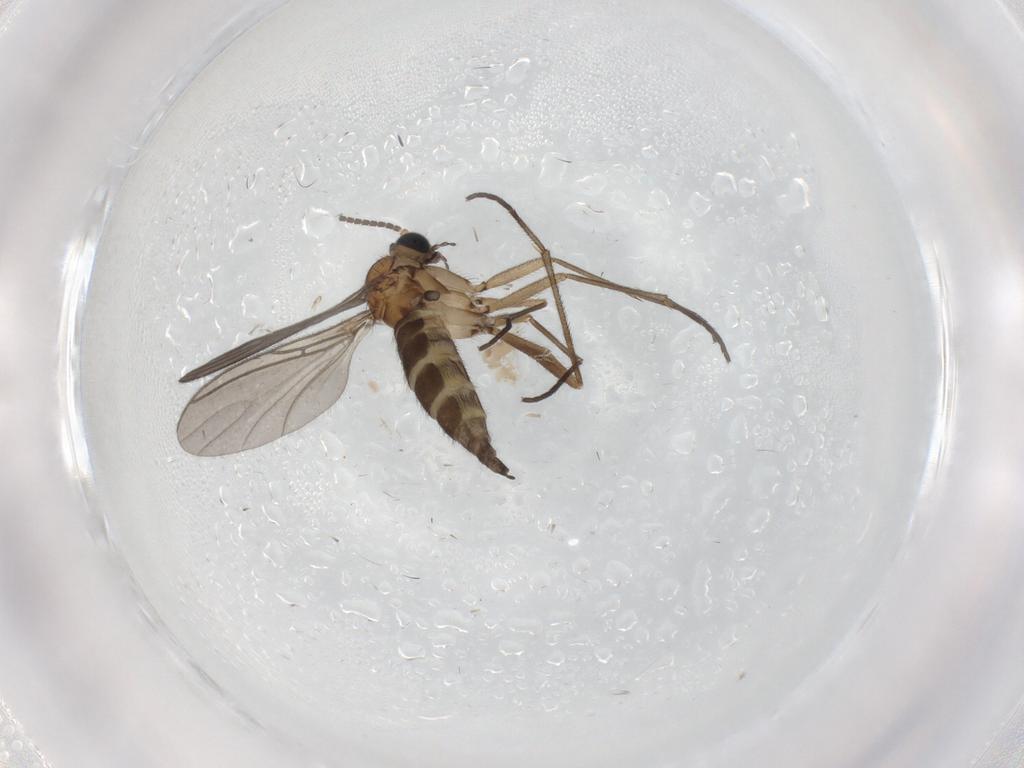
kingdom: Animalia
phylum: Arthropoda
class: Insecta
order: Diptera
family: Sciaridae
